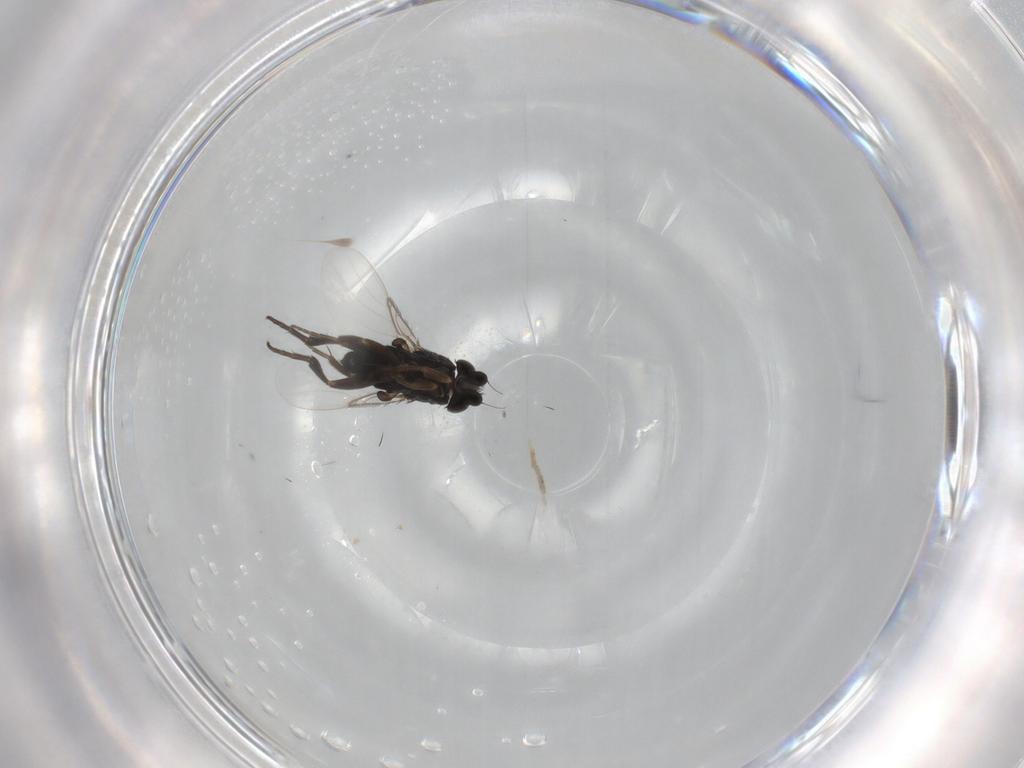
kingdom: Animalia
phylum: Arthropoda
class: Insecta
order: Diptera
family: Phoridae
